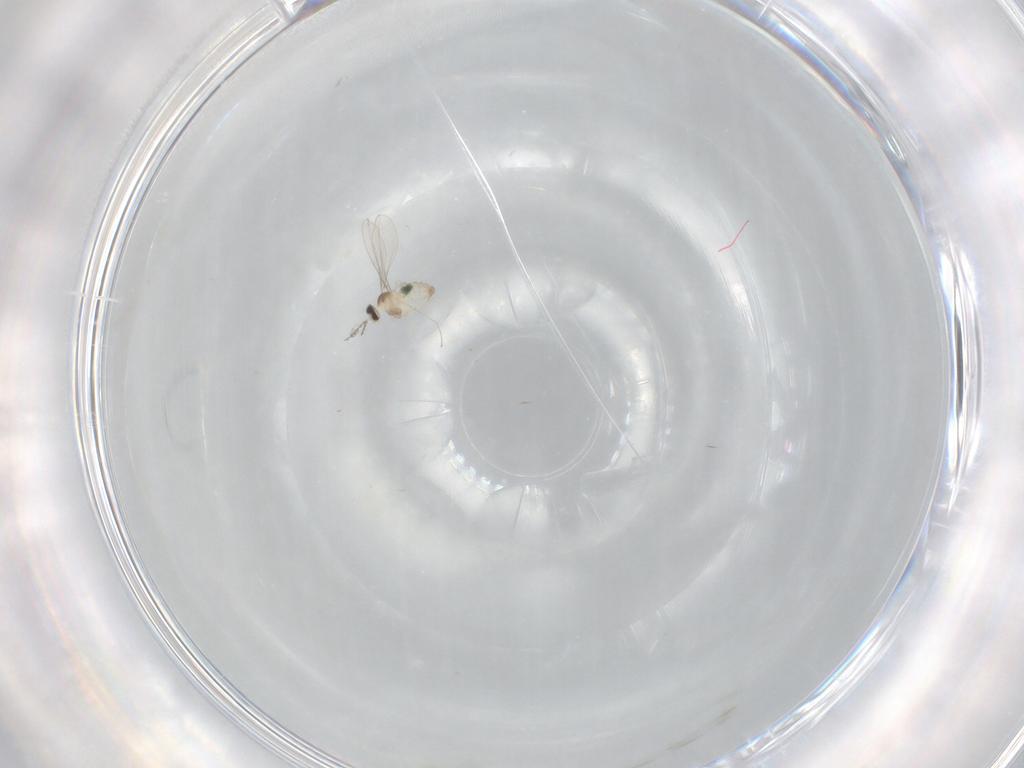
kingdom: Animalia
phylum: Arthropoda
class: Insecta
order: Diptera
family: Cecidomyiidae
